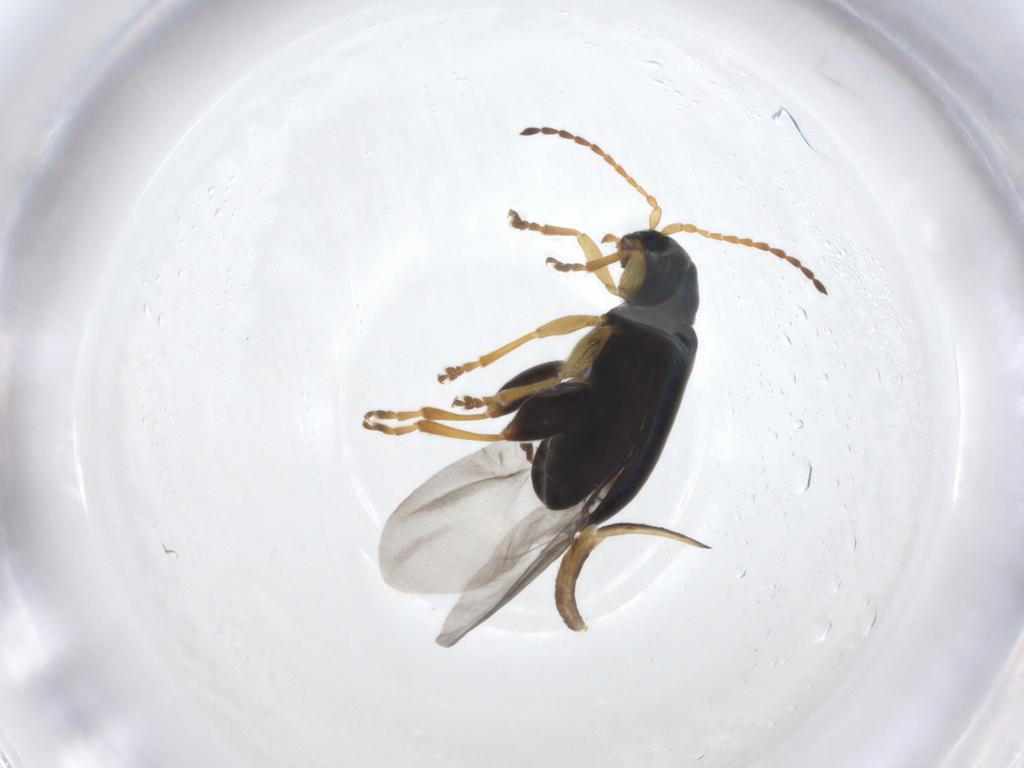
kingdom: Animalia
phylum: Arthropoda
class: Insecta
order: Coleoptera
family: Chrysomelidae
